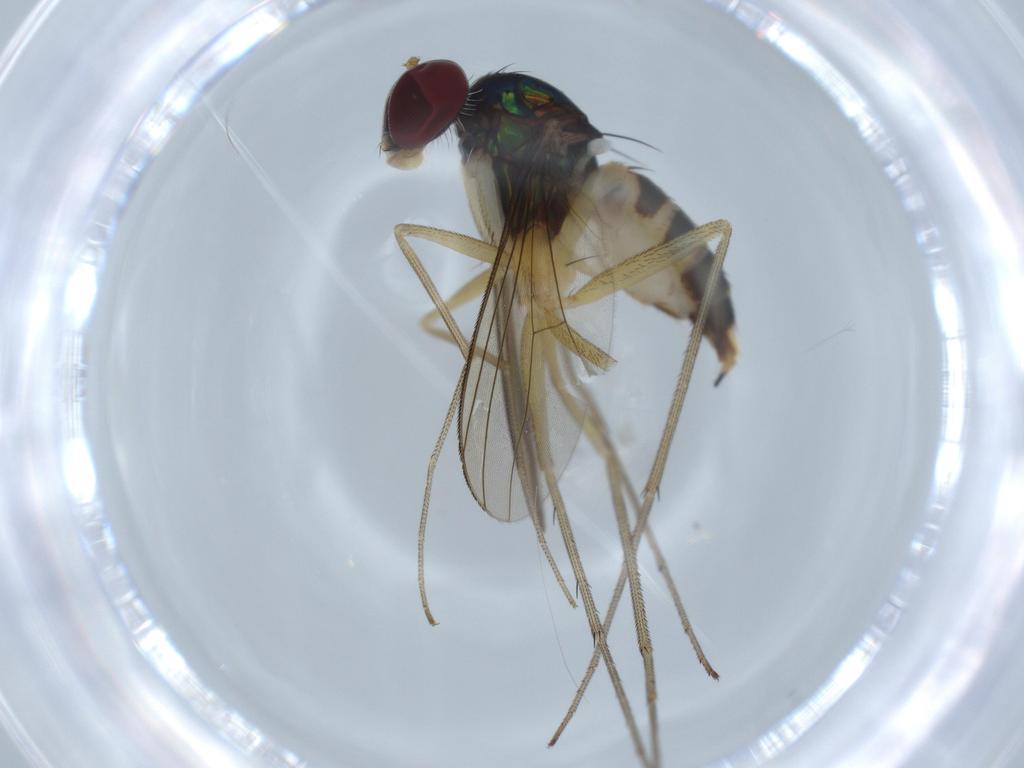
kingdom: Animalia
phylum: Arthropoda
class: Insecta
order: Diptera
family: Dolichopodidae
